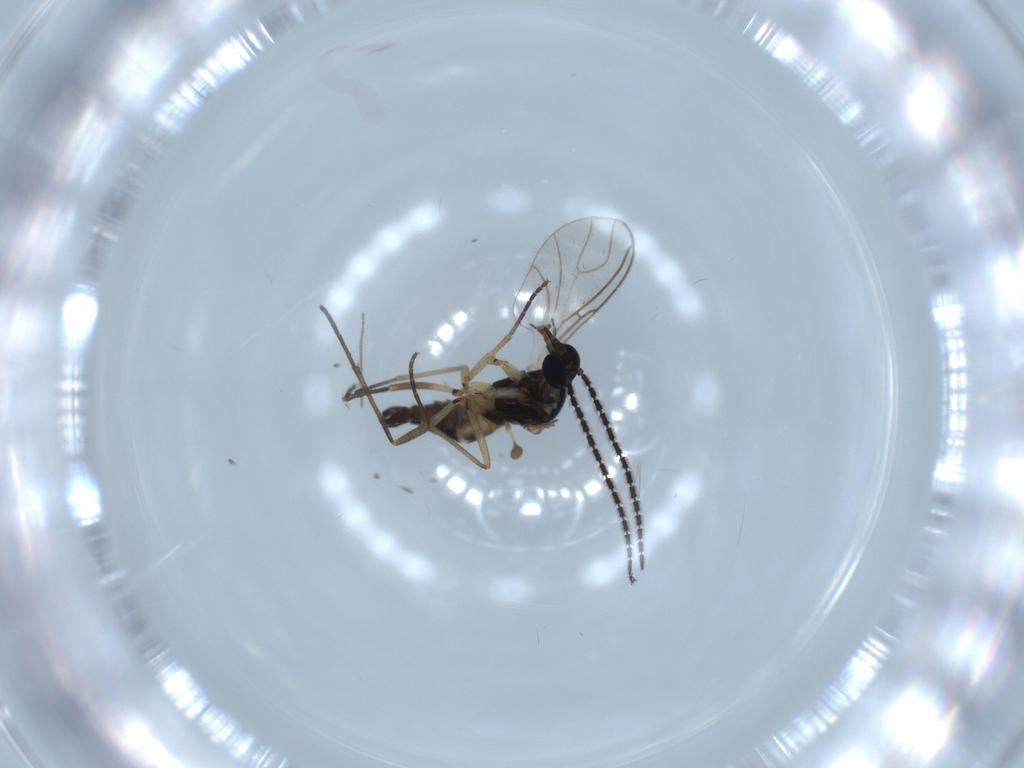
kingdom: Animalia
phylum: Arthropoda
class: Insecta
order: Diptera
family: Sciaridae
